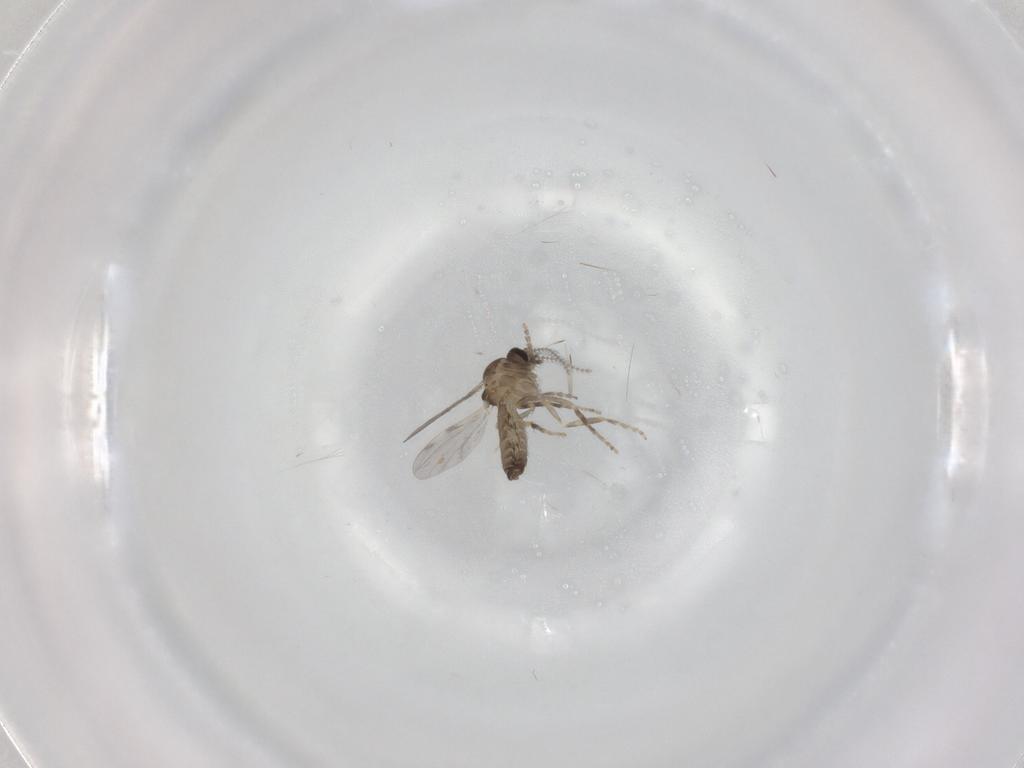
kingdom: Animalia
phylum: Arthropoda
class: Insecta
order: Diptera
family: Ceratopogonidae
